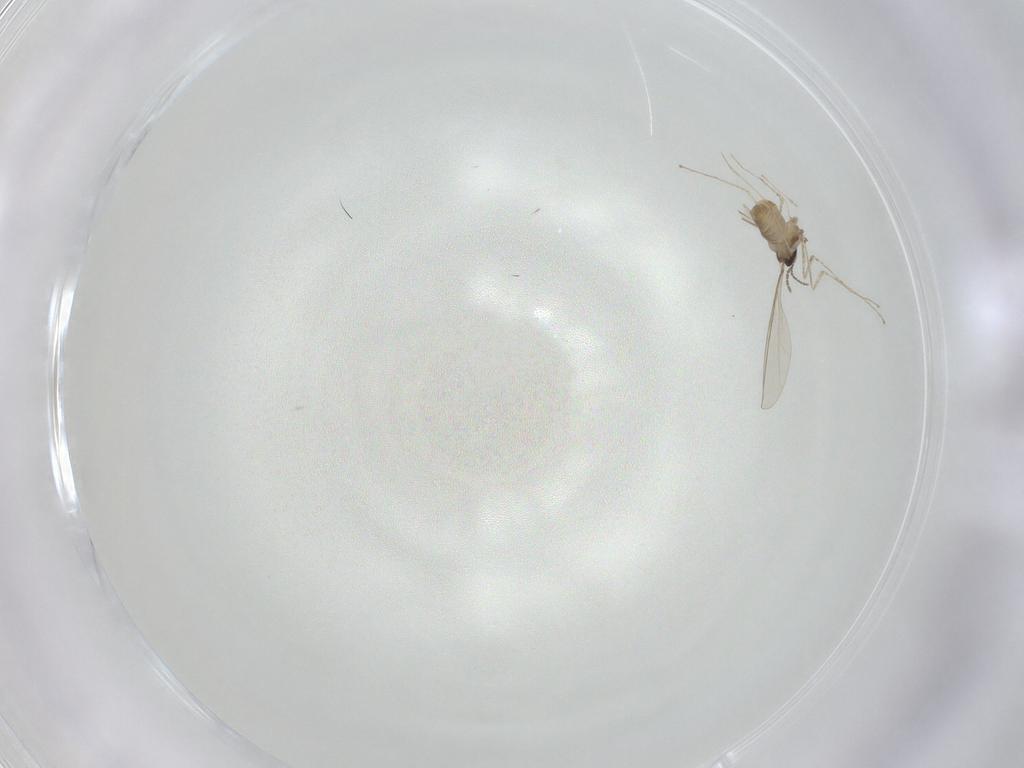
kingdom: Animalia
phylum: Arthropoda
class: Insecta
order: Diptera
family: Cecidomyiidae
